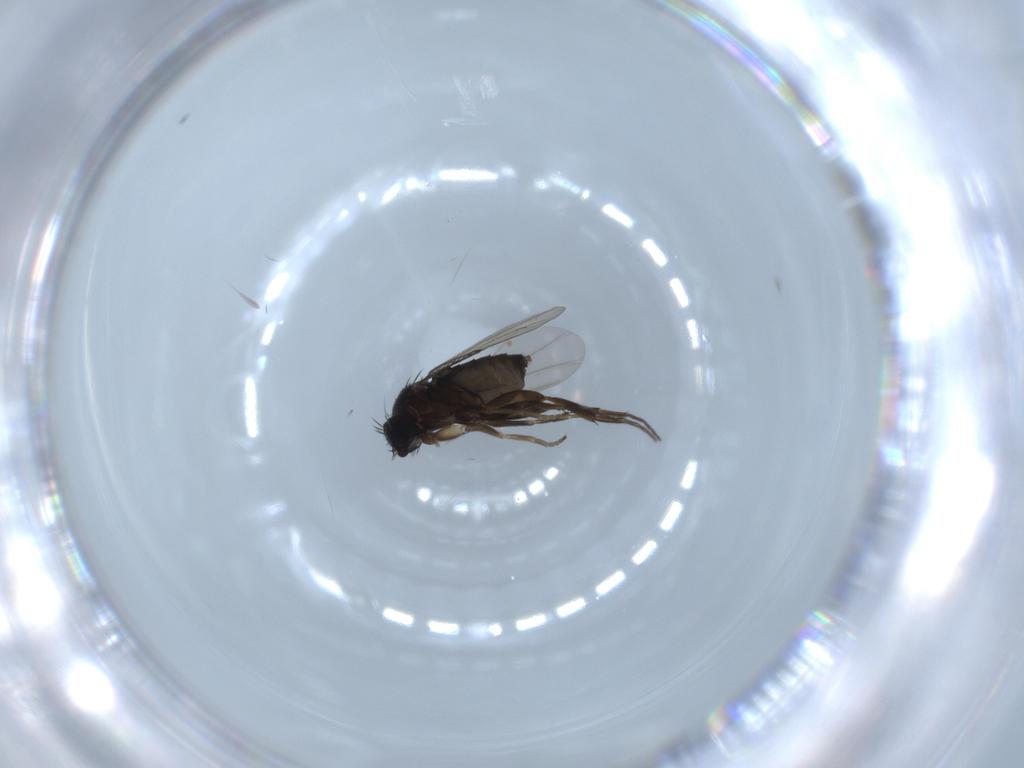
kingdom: Animalia
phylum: Arthropoda
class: Insecta
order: Diptera
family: Phoridae
